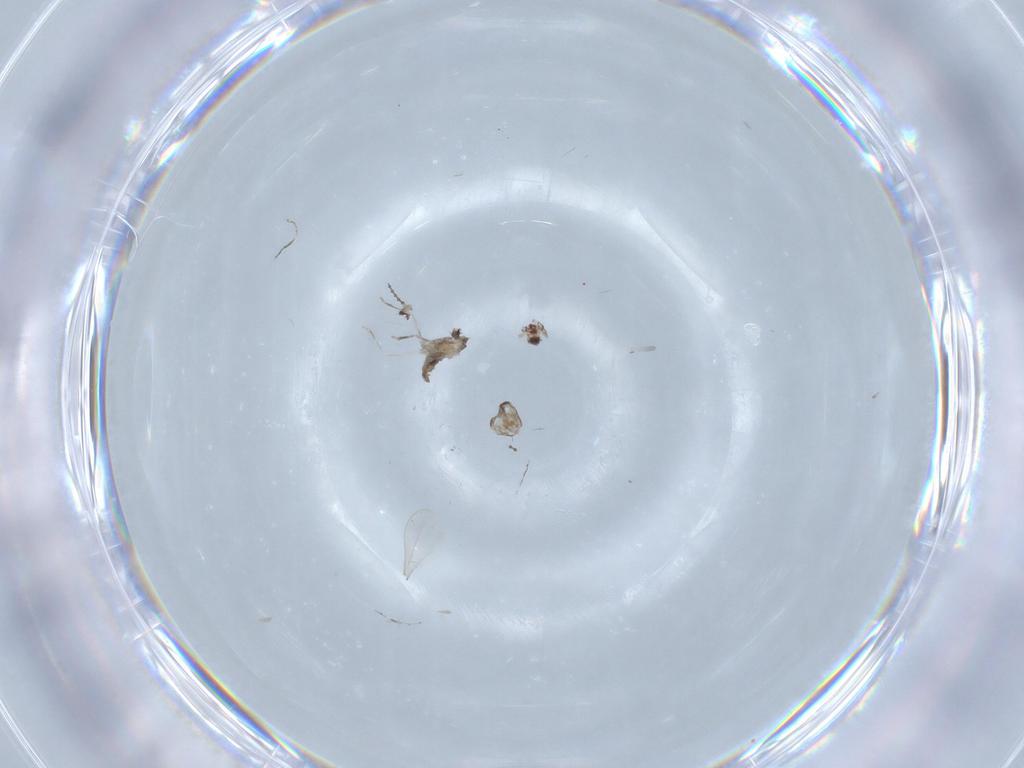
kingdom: Animalia
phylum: Arthropoda
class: Insecta
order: Diptera
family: Cecidomyiidae
